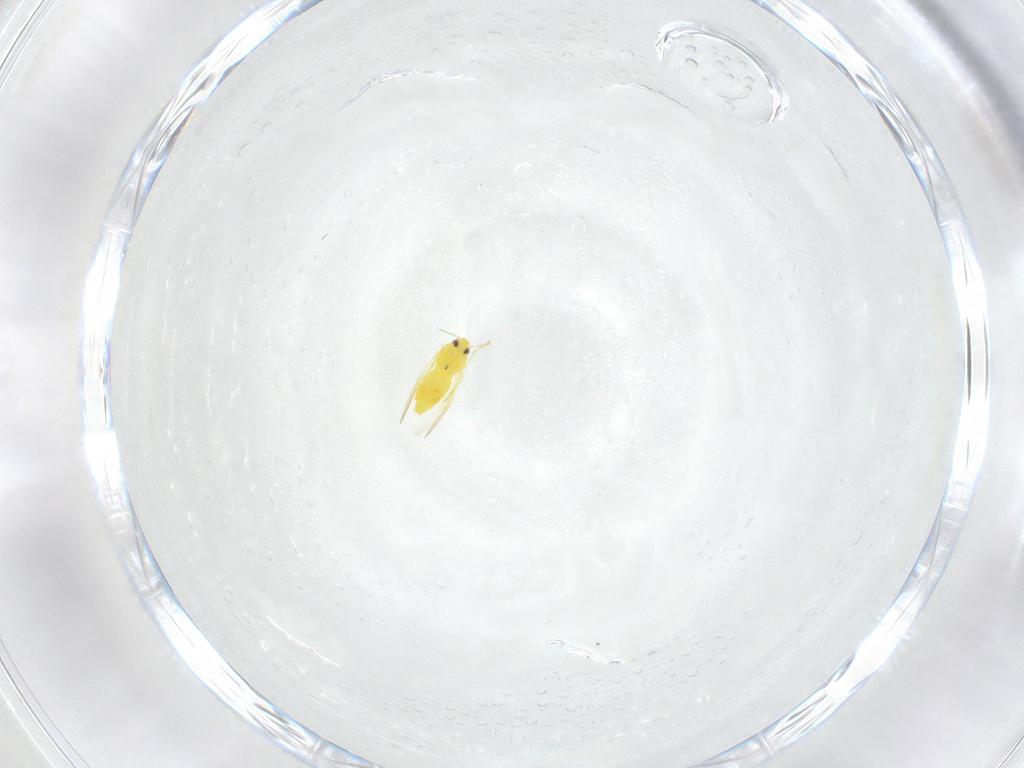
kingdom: Animalia
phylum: Arthropoda
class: Insecta
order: Hemiptera
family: Aleyrodidae
